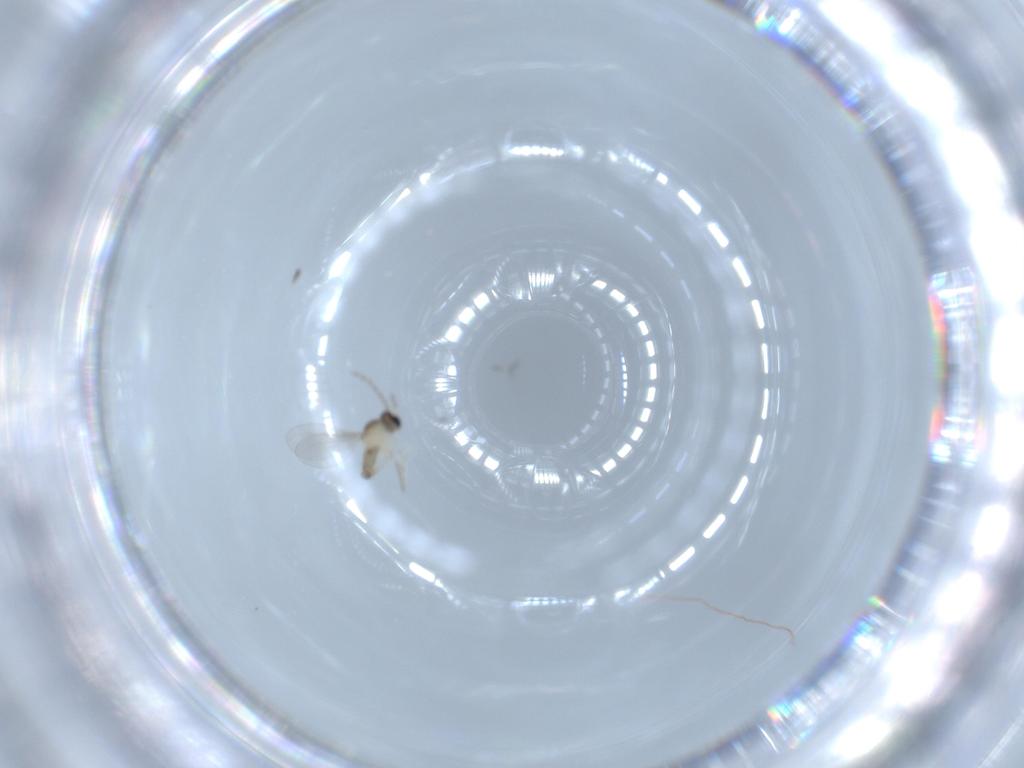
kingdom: Animalia
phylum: Arthropoda
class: Insecta
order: Diptera
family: Cecidomyiidae
